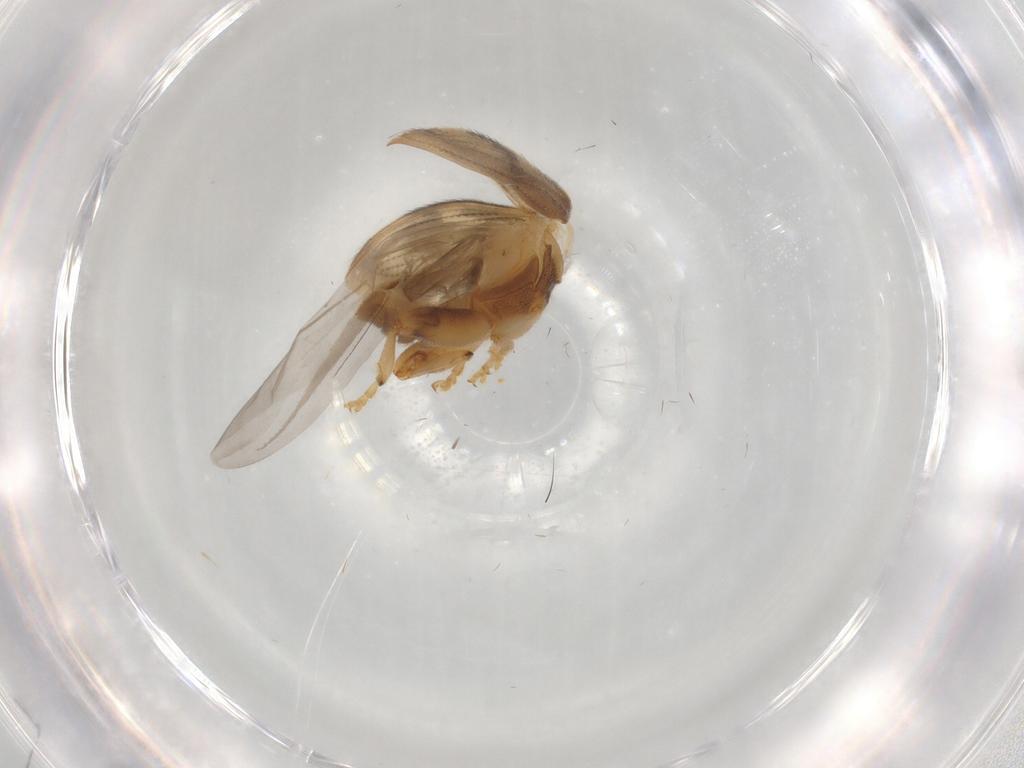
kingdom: Animalia
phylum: Arthropoda
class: Insecta
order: Coleoptera
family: Curculionidae
